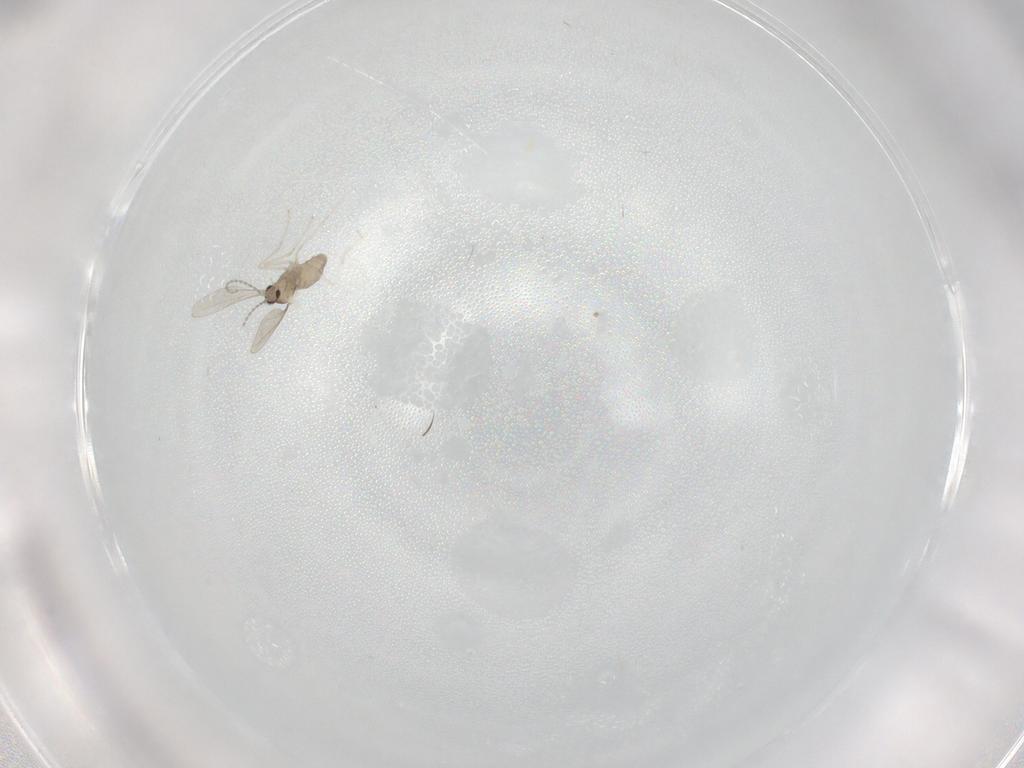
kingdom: Animalia
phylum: Arthropoda
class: Insecta
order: Diptera
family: Cecidomyiidae
